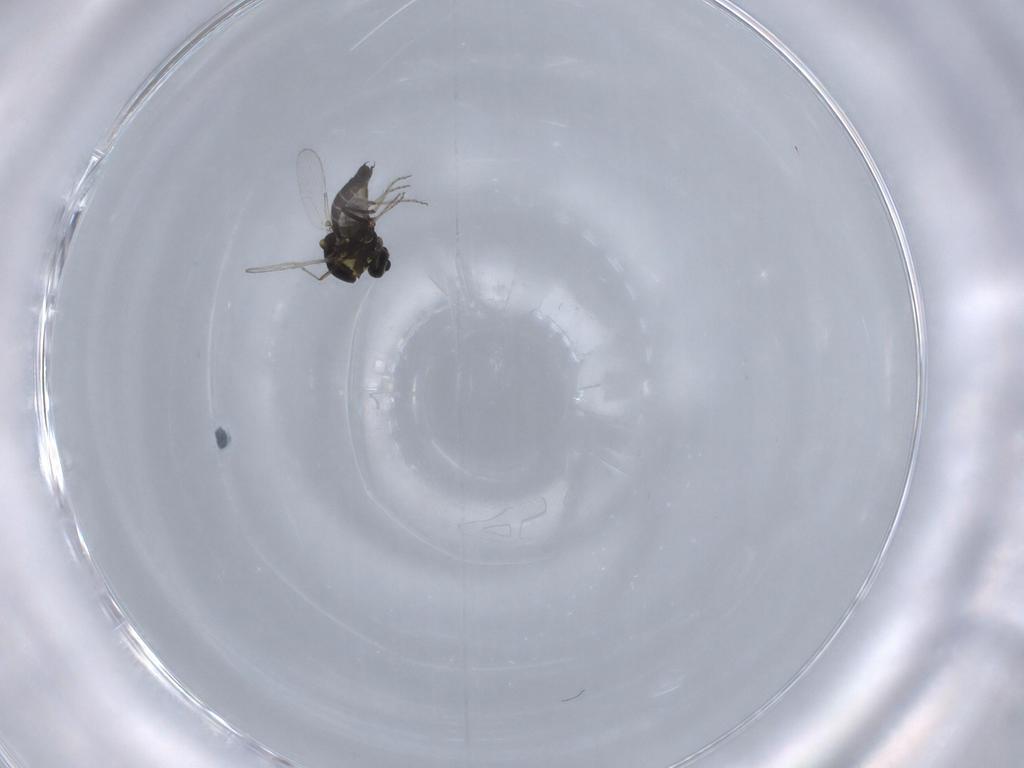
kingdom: Animalia
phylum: Arthropoda
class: Insecta
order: Diptera
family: Ceratopogonidae
